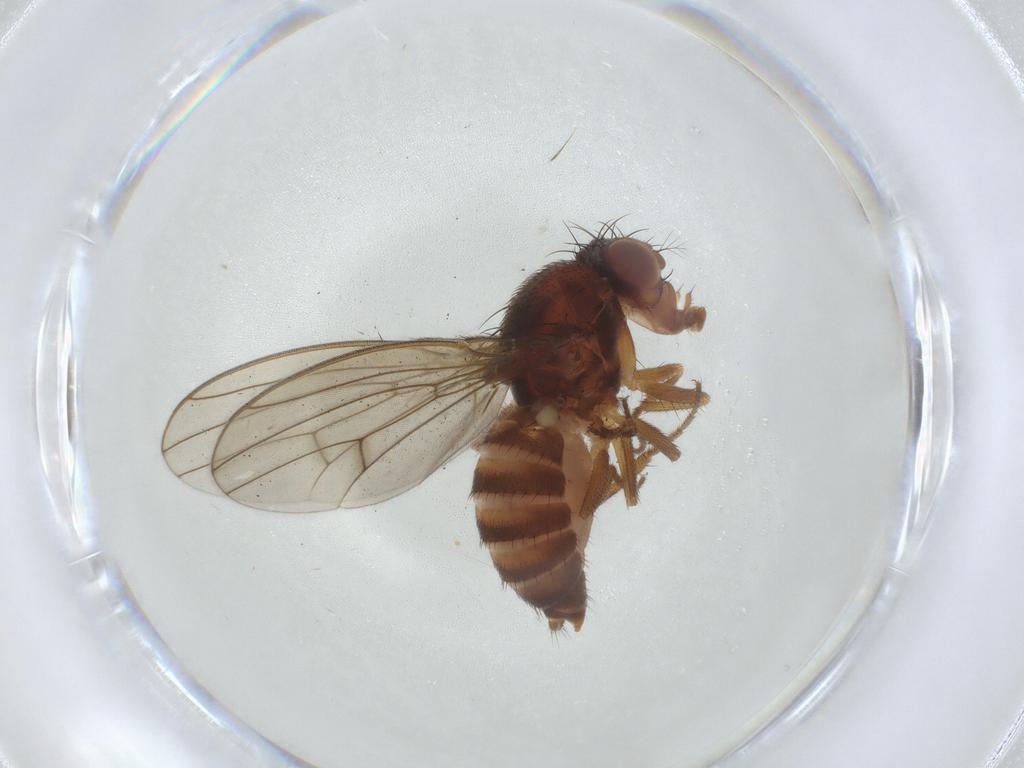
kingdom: Animalia
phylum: Arthropoda
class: Insecta
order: Diptera
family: Drosophilidae
